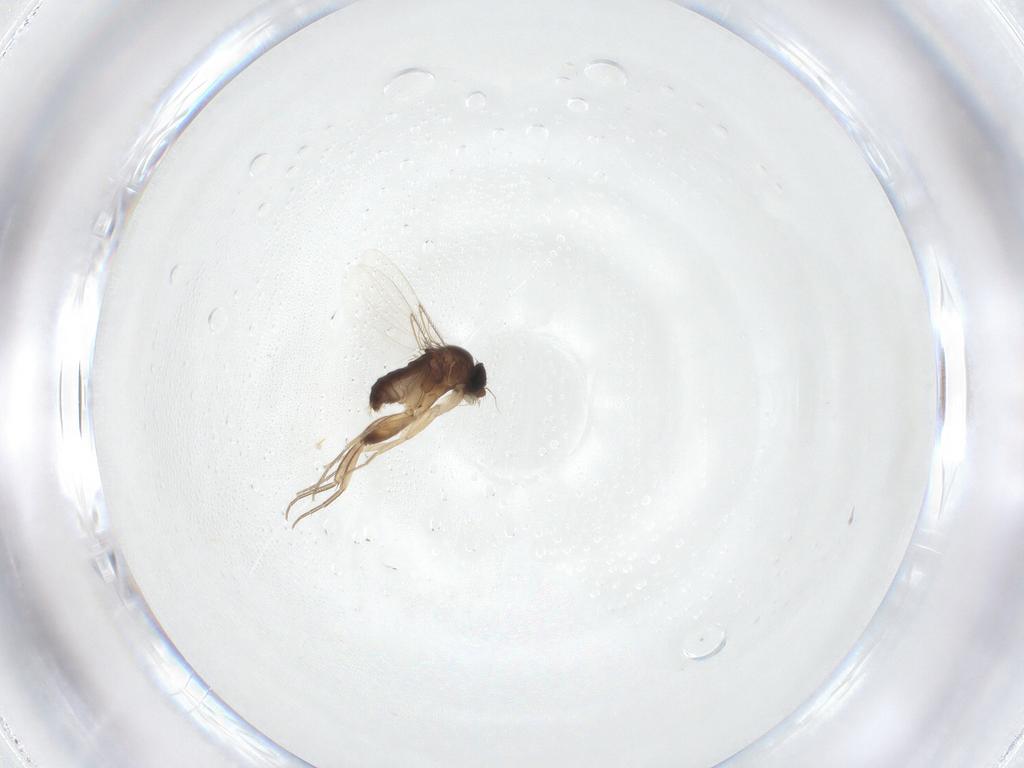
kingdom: Animalia
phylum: Arthropoda
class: Insecta
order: Diptera
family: Phoridae
